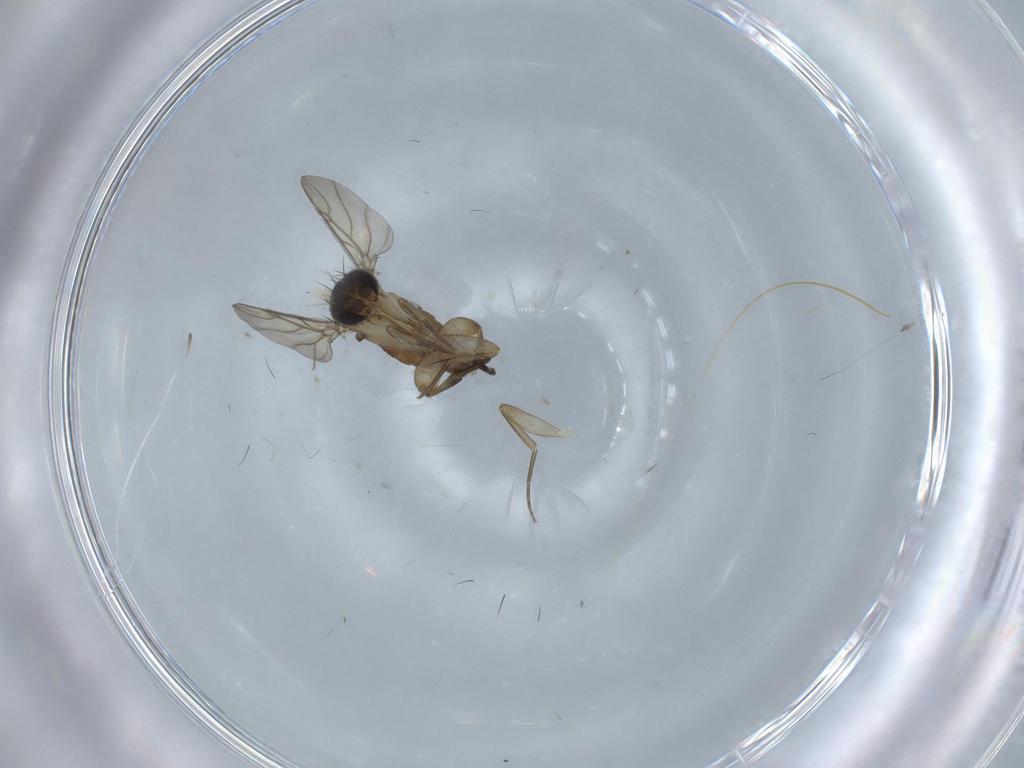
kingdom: Animalia
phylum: Arthropoda
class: Insecta
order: Diptera
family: Phoridae
